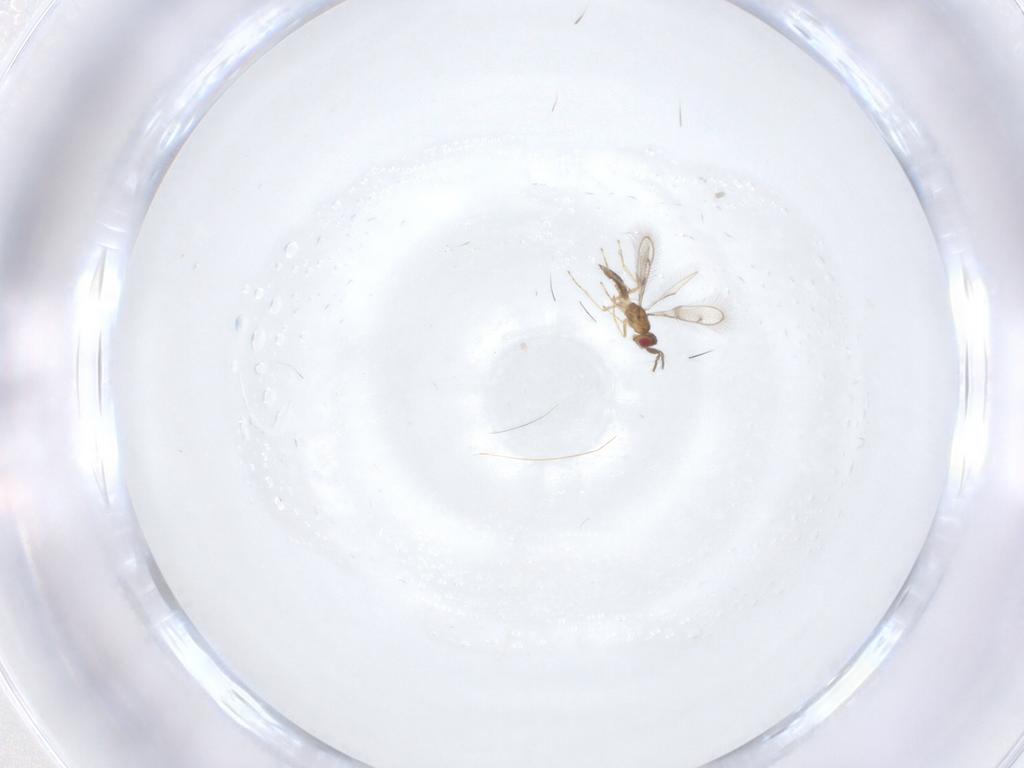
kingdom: Animalia
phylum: Arthropoda
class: Insecta
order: Hymenoptera
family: Eulophidae
